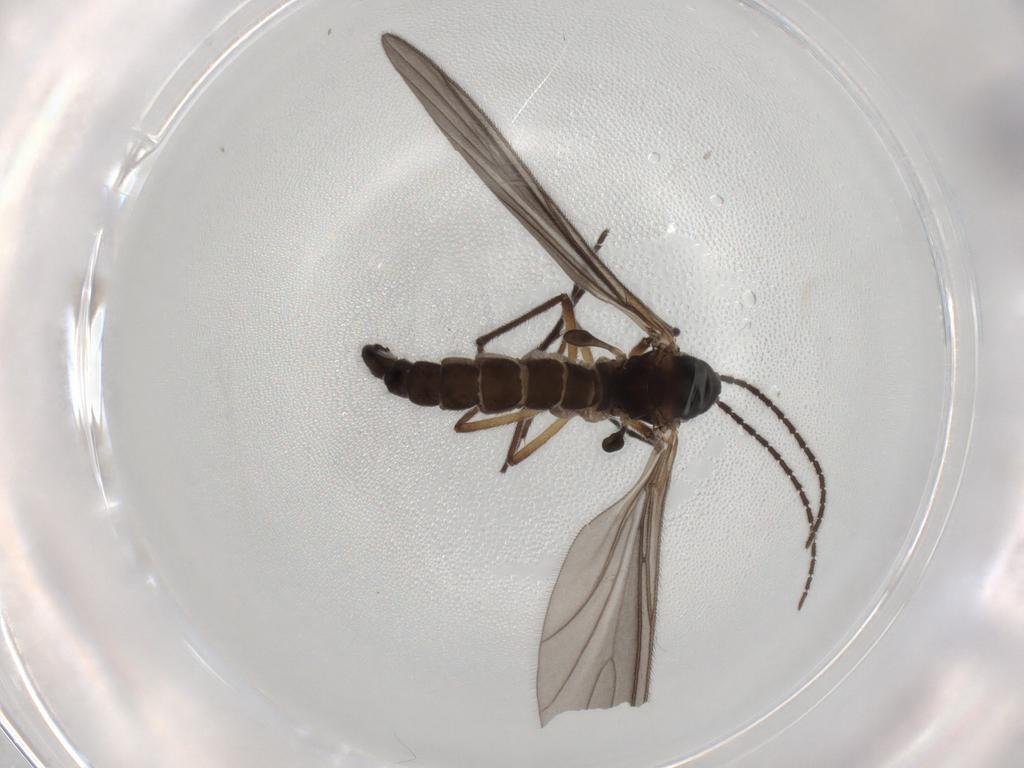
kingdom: Animalia
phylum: Arthropoda
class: Insecta
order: Diptera
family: Sciaridae
